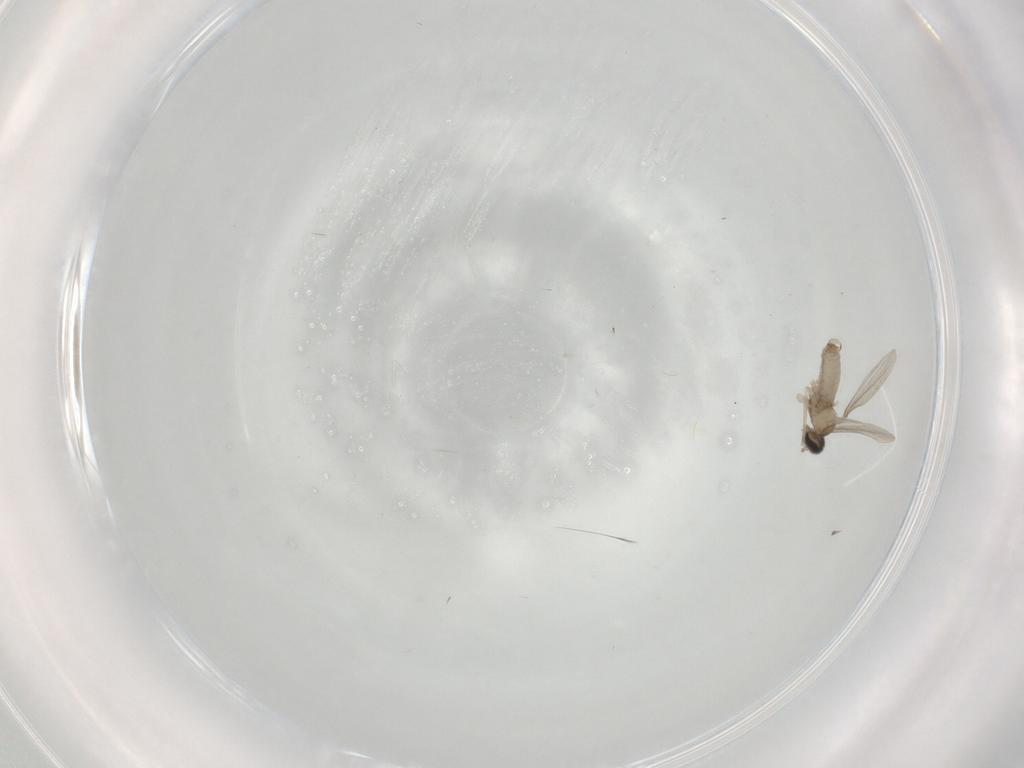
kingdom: Animalia
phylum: Arthropoda
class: Insecta
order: Diptera
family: Cecidomyiidae
